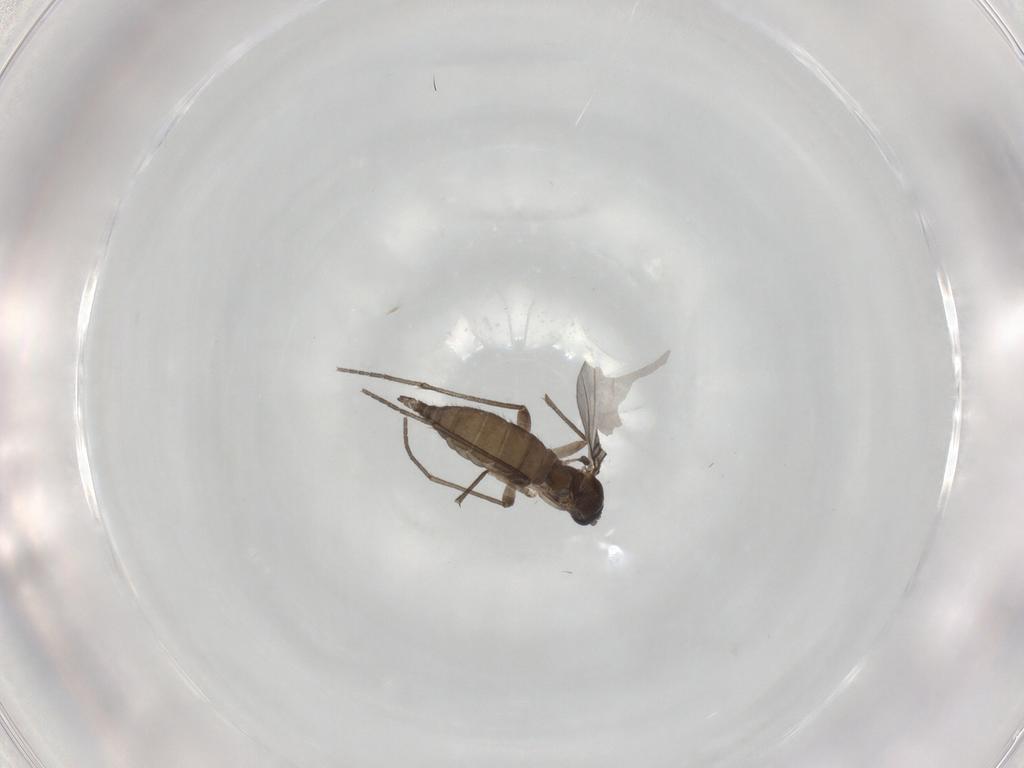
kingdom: Animalia
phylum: Arthropoda
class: Insecta
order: Diptera
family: Sciaridae
